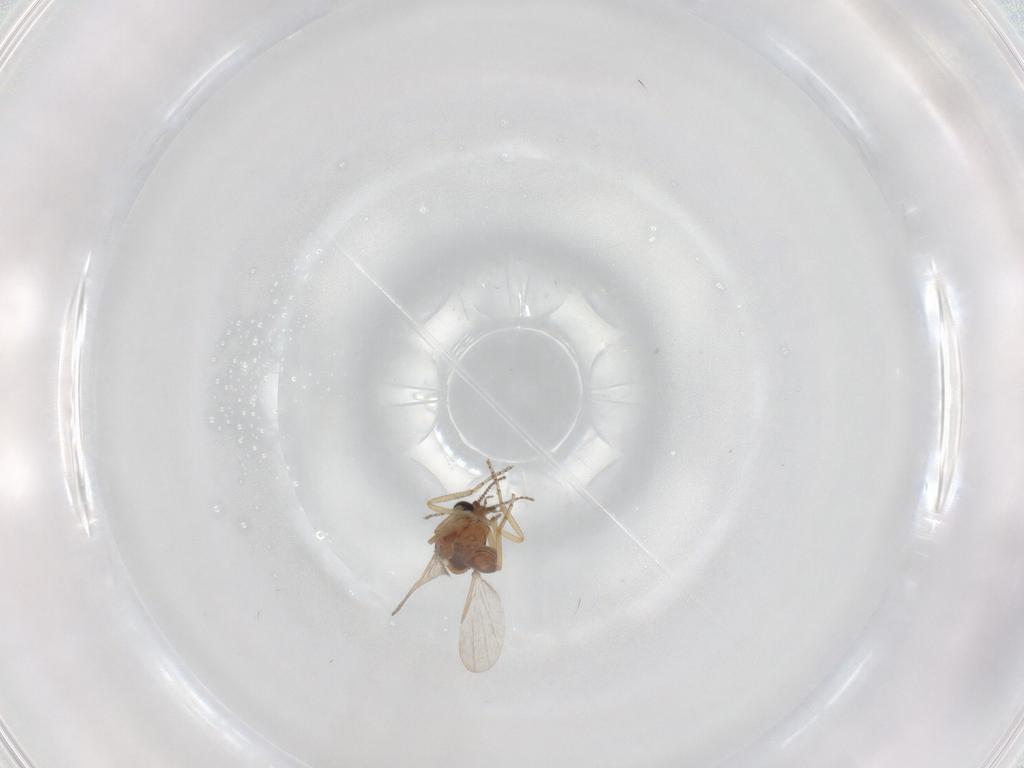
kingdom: Animalia
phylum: Arthropoda
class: Insecta
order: Diptera
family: Ceratopogonidae
